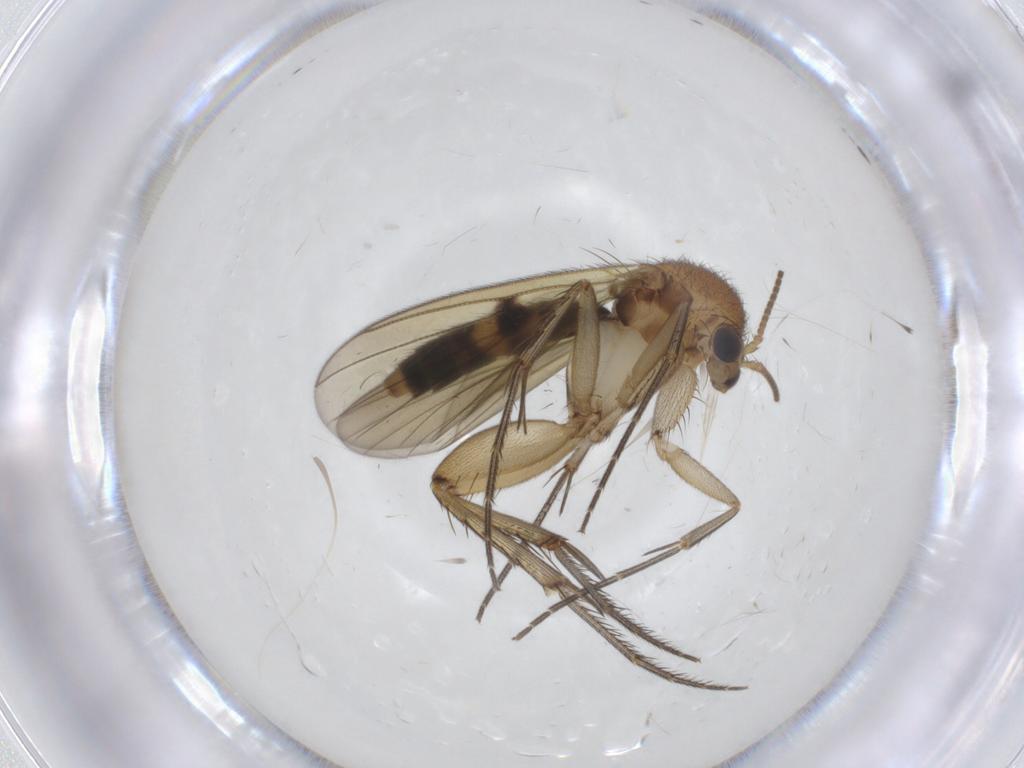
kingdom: Animalia
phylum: Arthropoda
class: Insecta
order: Diptera
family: Mycetophilidae
